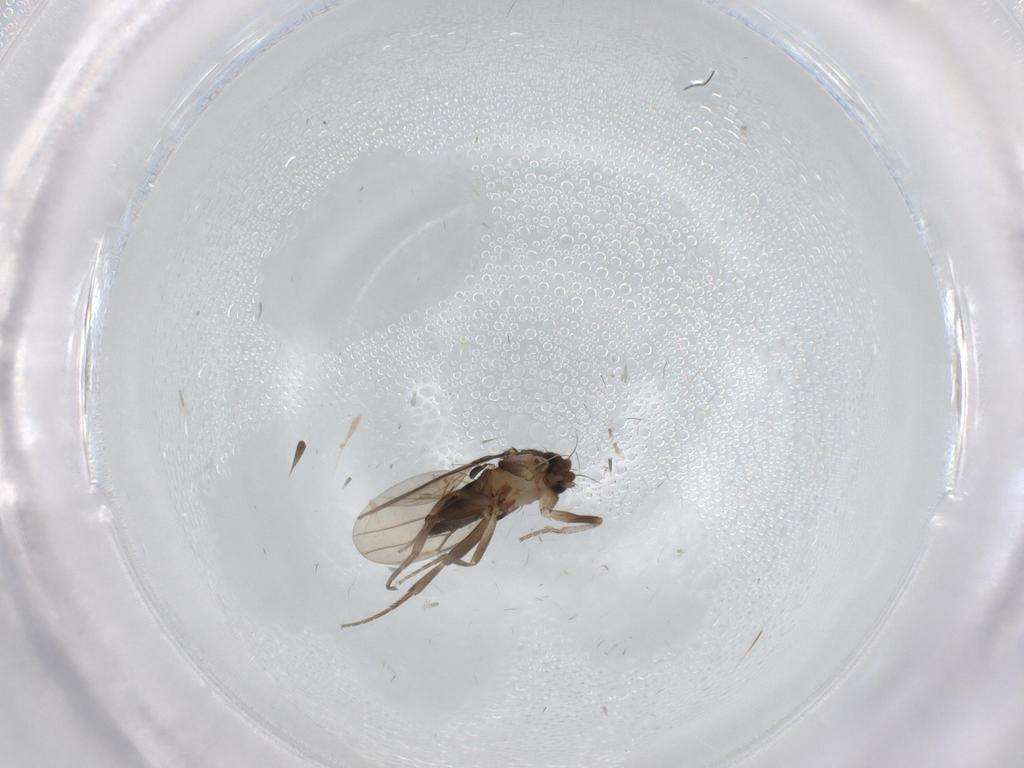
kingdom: Animalia
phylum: Arthropoda
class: Insecta
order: Diptera
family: Phoridae
